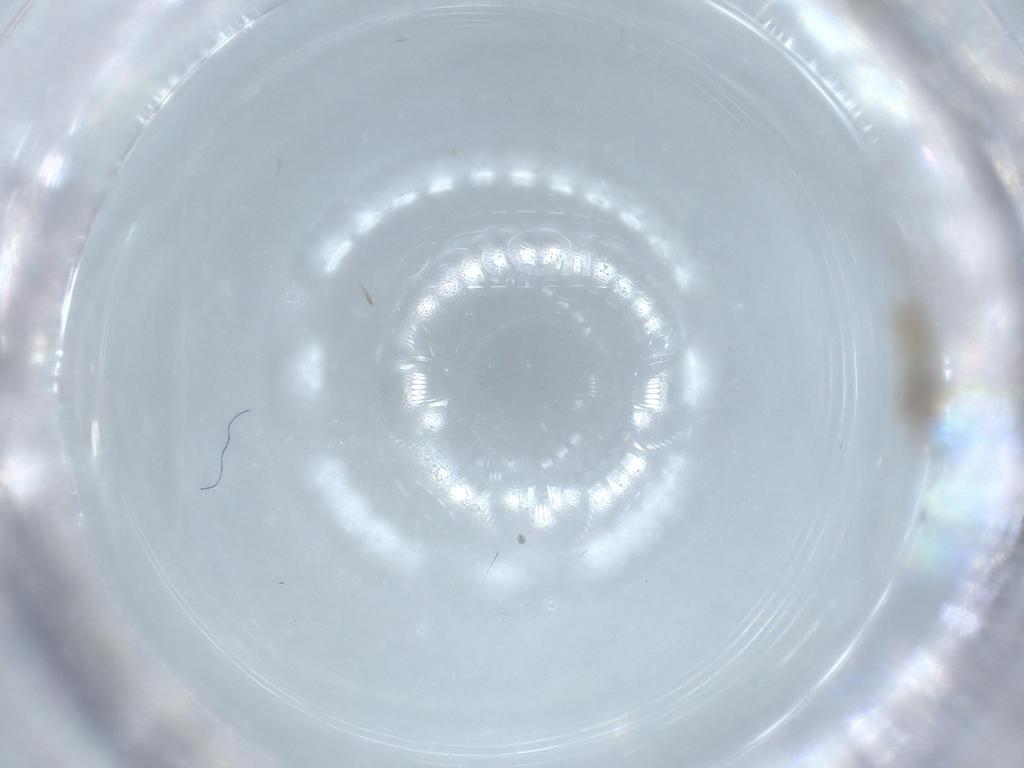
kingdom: Animalia
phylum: Arthropoda
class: Insecta
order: Diptera
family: Cecidomyiidae
